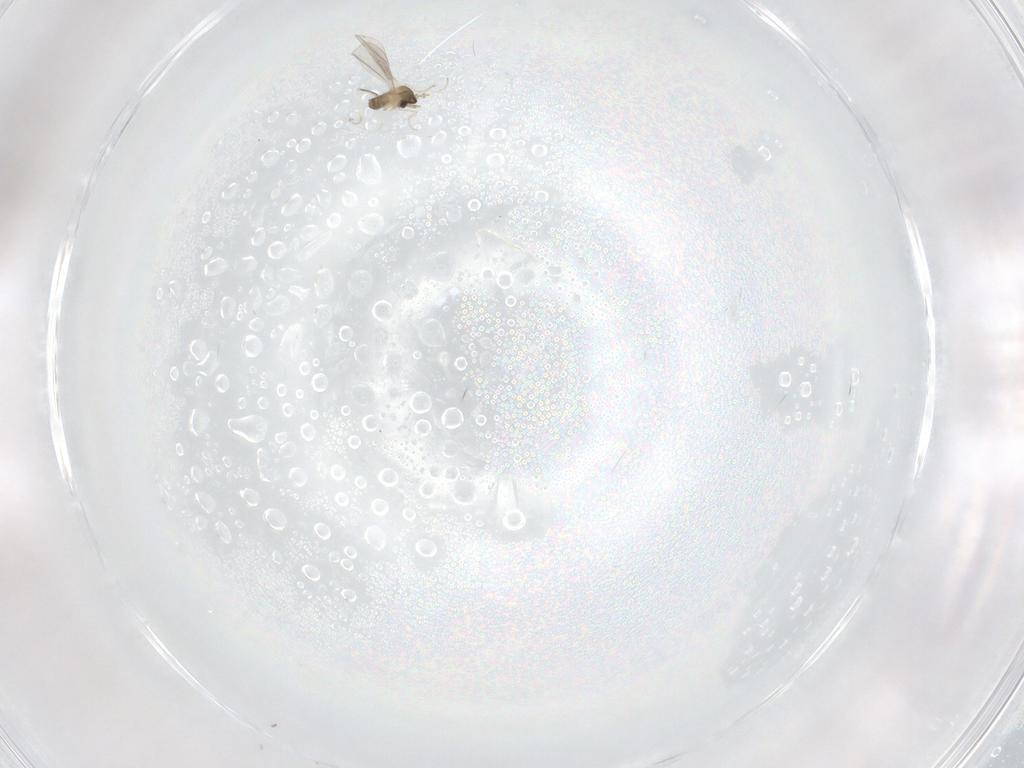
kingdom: Animalia
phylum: Arthropoda
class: Insecta
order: Diptera
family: Cecidomyiidae
